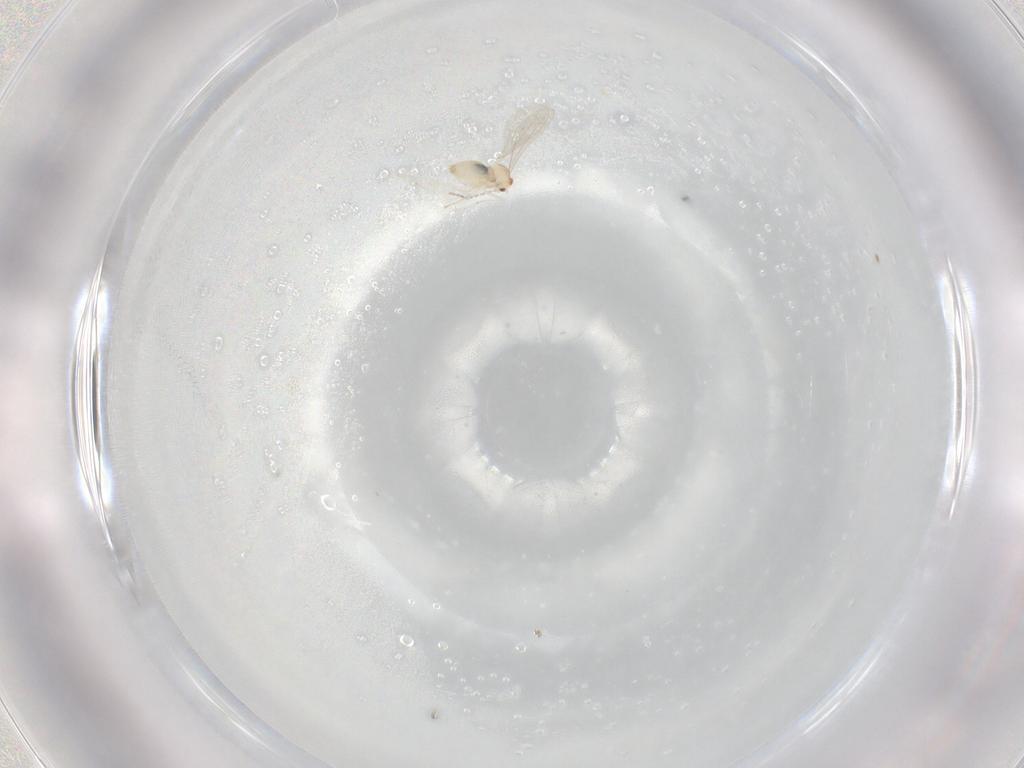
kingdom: Animalia
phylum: Arthropoda
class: Insecta
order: Diptera
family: Cecidomyiidae
